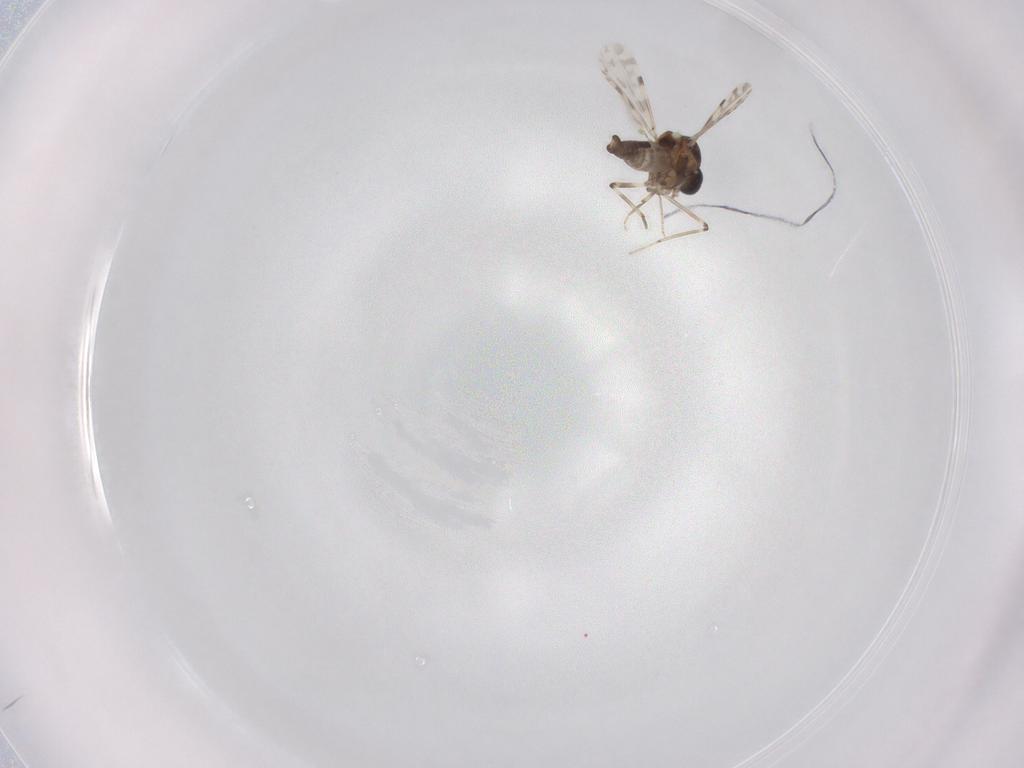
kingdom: Animalia
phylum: Arthropoda
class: Insecta
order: Diptera
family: Ceratopogonidae
